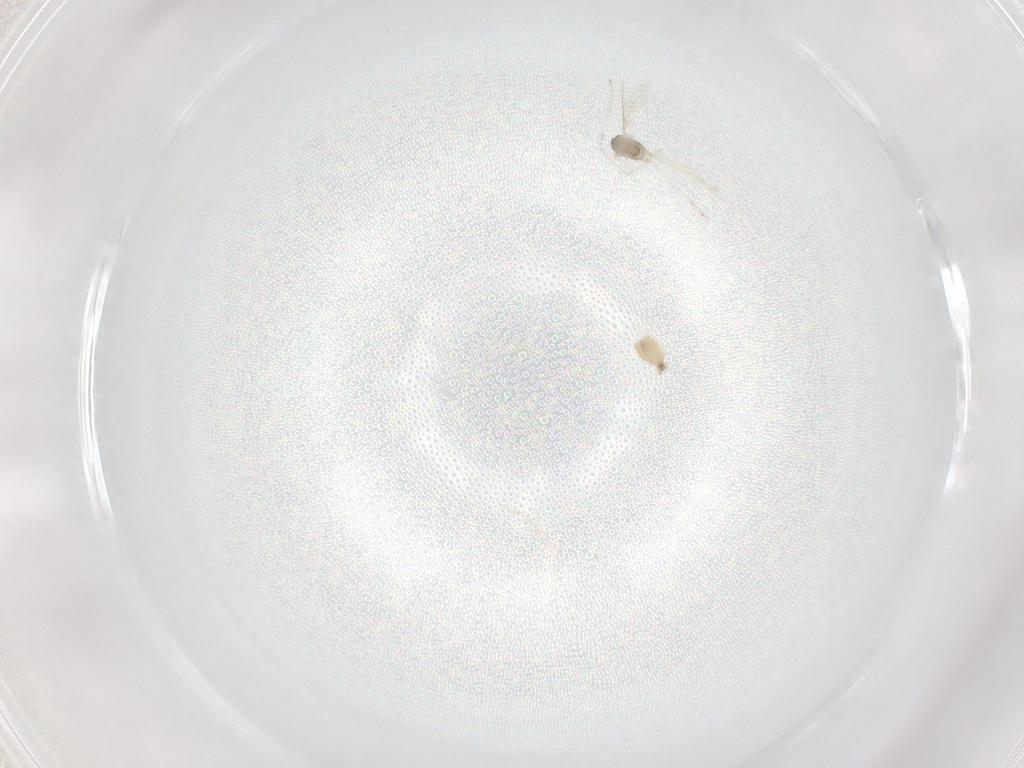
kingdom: Animalia
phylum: Arthropoda
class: Insecta
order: Diptera
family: Cecidomyiidae
